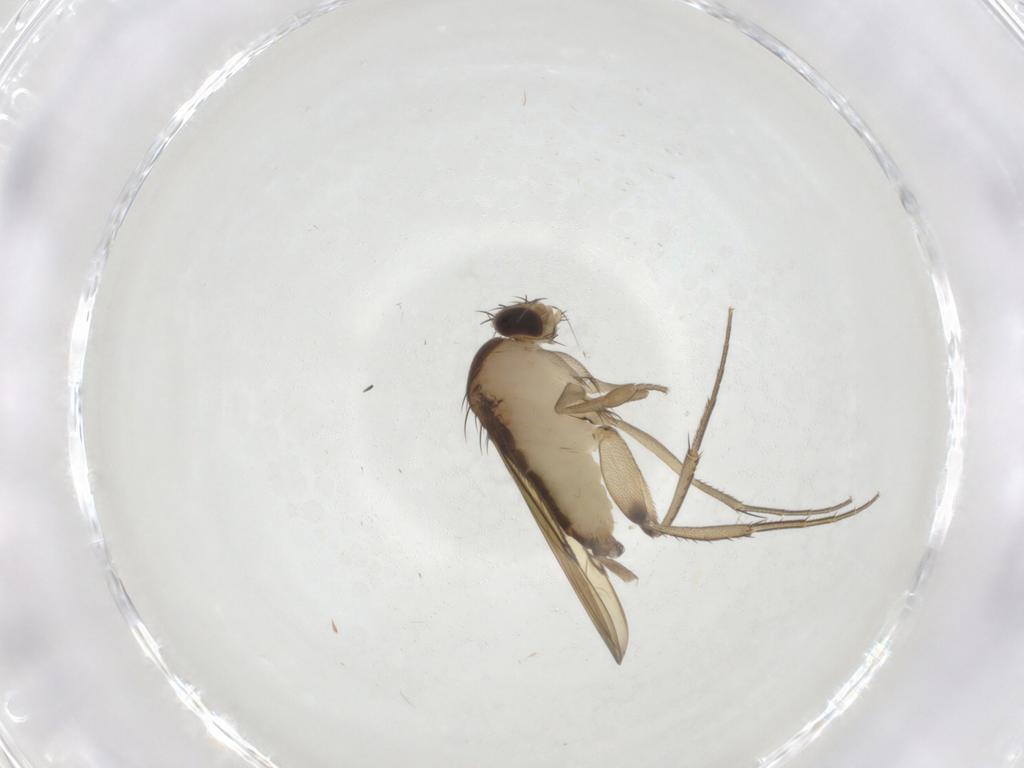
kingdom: Animalia
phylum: Arthropoda
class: Insecta
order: Diptera
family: Phoridae
